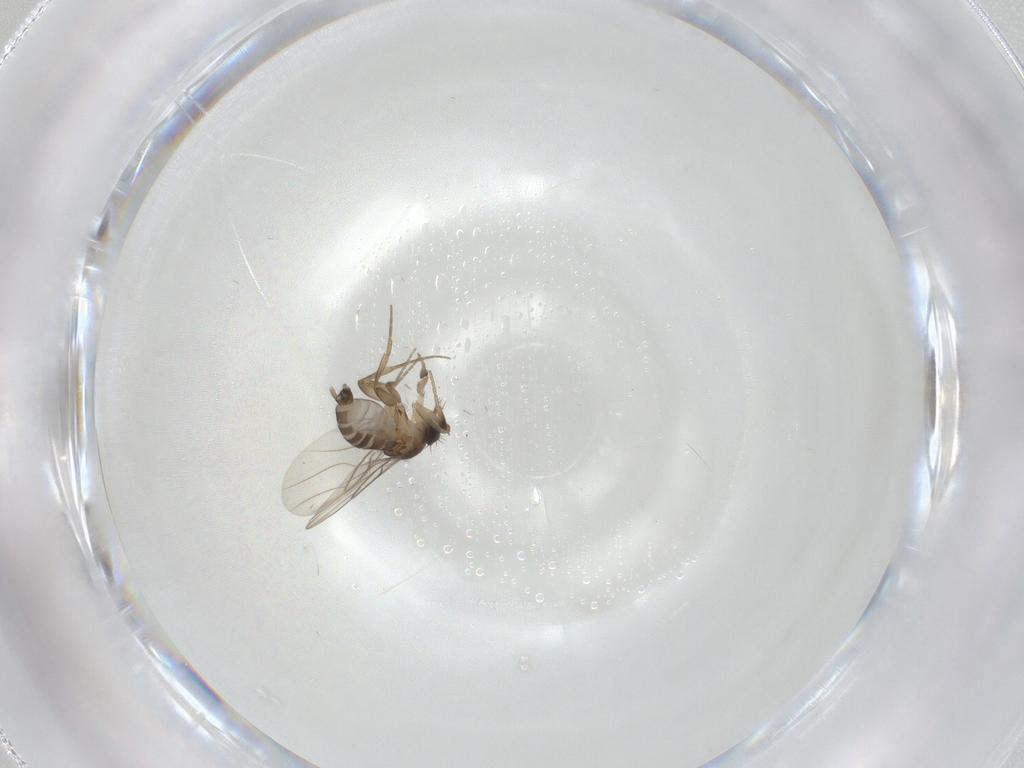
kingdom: Animalia
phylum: Arthropoda
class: Insecta
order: Diptera
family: Phoridae
